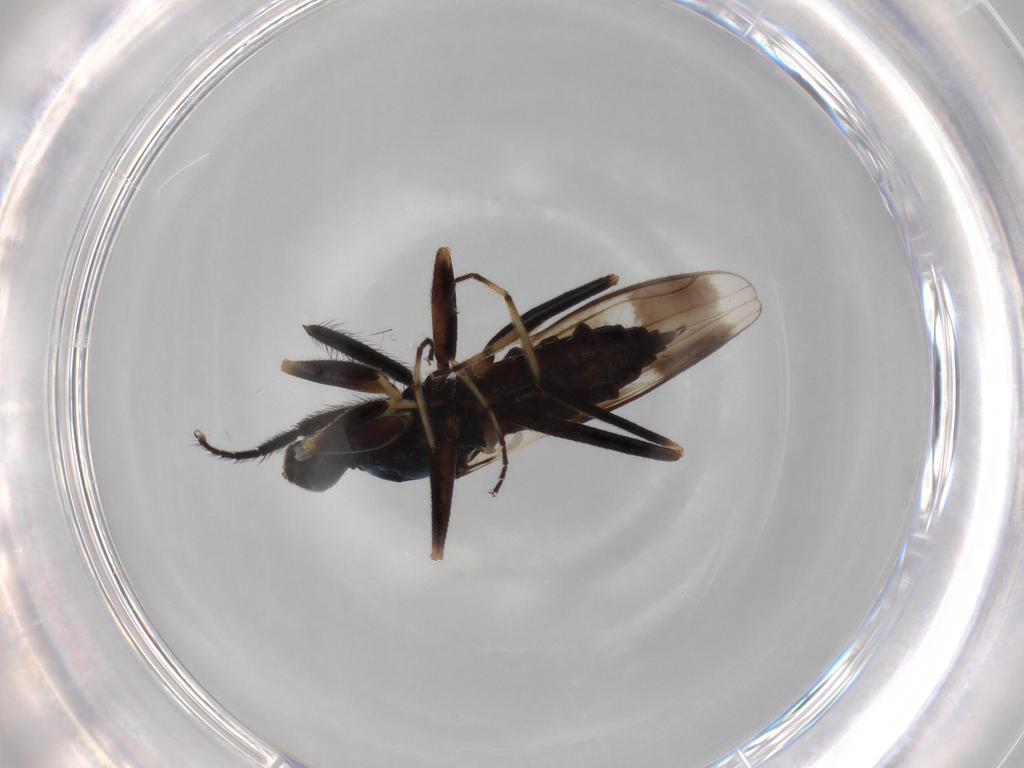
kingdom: Animalia
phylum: Arthropoda
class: Insecta
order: Diptera
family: Hybotidae
